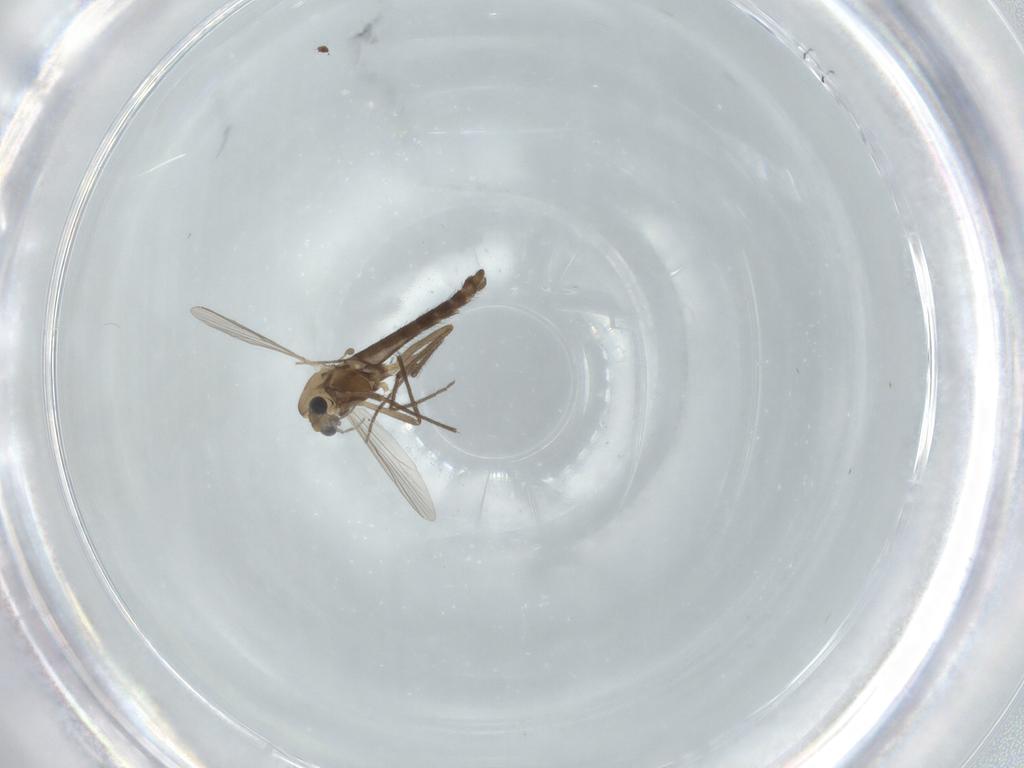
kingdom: Animalia
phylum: Arthropoda
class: Insecta
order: Diptera
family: Chironomidae
